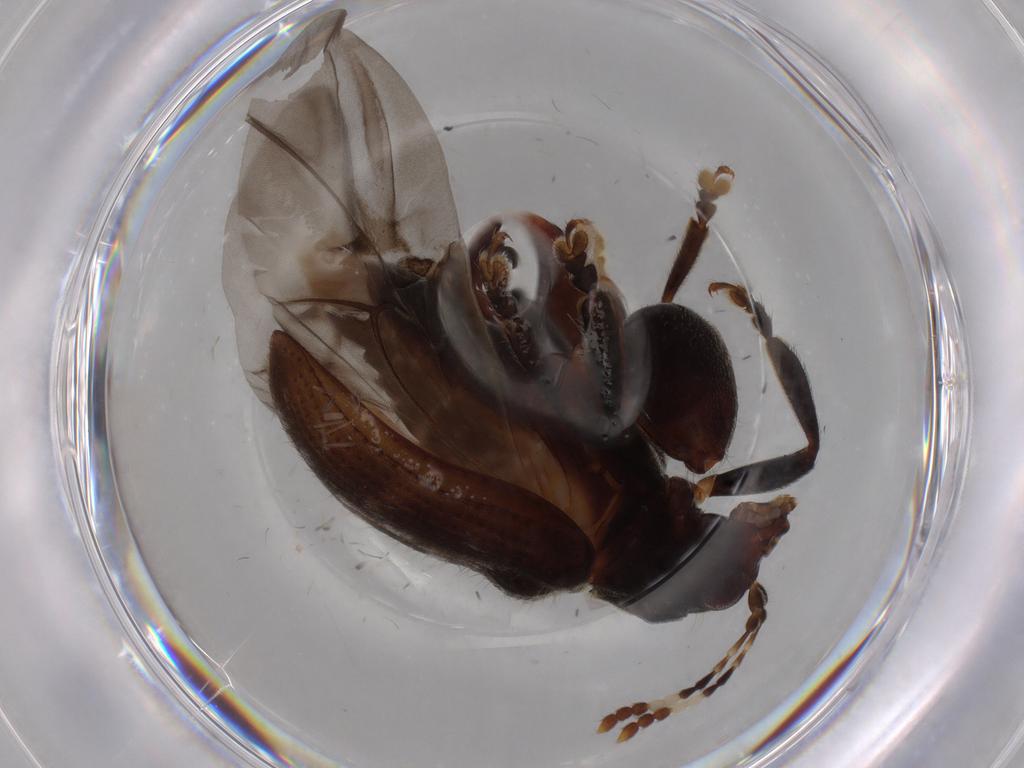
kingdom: Animalia
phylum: Arthropoda
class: Insecta
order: Coleoptera
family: Chrysomelidae
